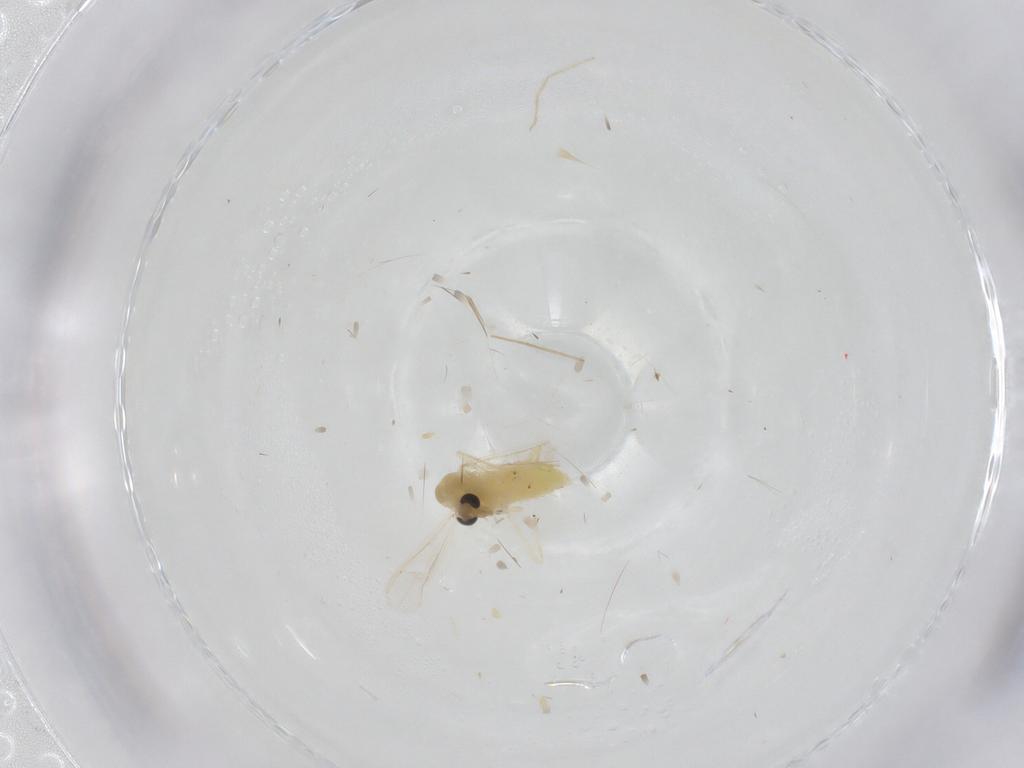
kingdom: Animalia
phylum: Arthropoda
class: Insecta
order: Diptera
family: Chironomidae
